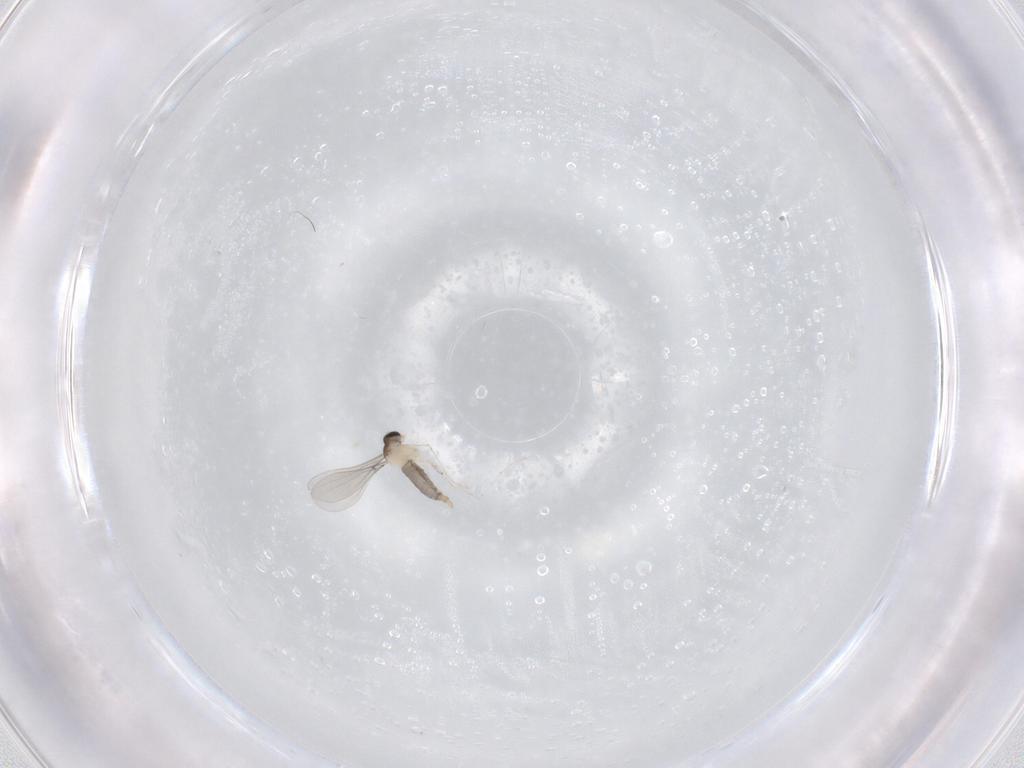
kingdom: Animalia
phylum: Arthropoda
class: Insecta
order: Diptera
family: Cecidomyiidae
